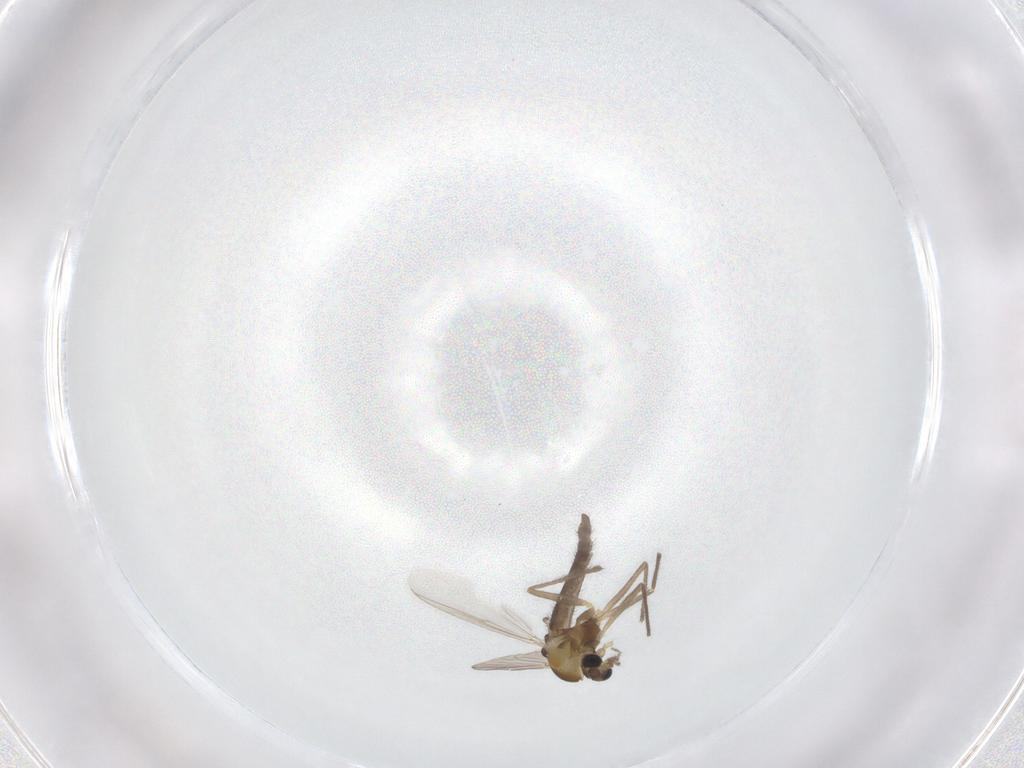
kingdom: Animalia
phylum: Arthropoda
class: Insecta
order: Diptera
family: Chironomidae
